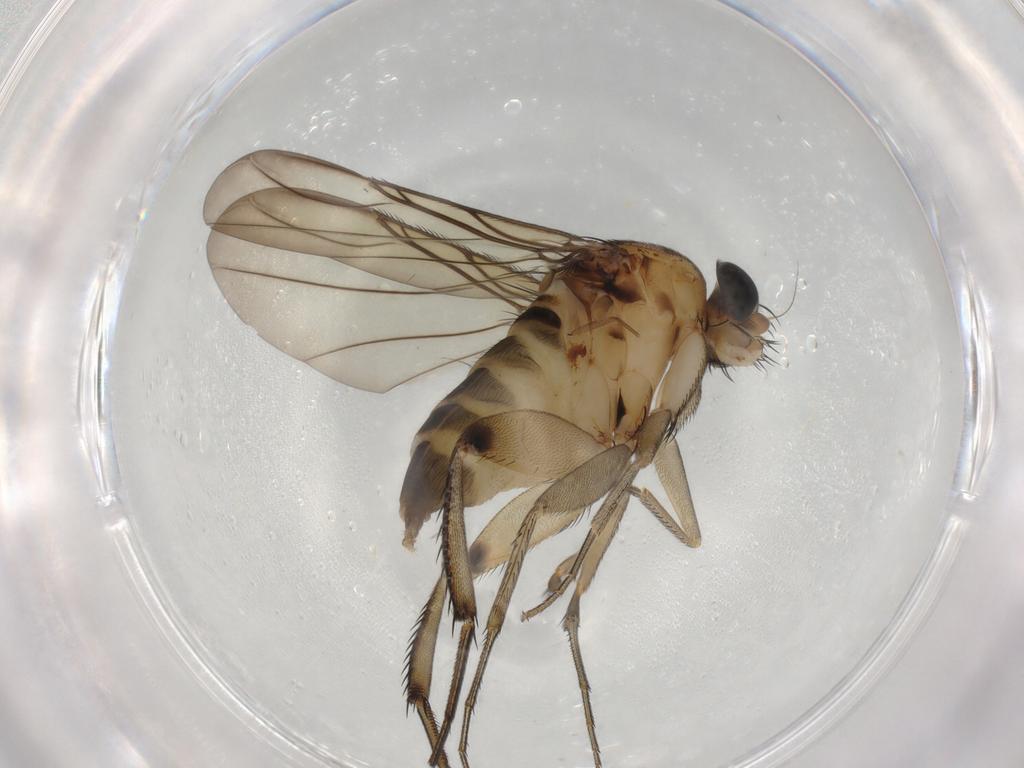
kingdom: Animalia
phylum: Arthropoda
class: Insecta
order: Diptera
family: Phoridae
